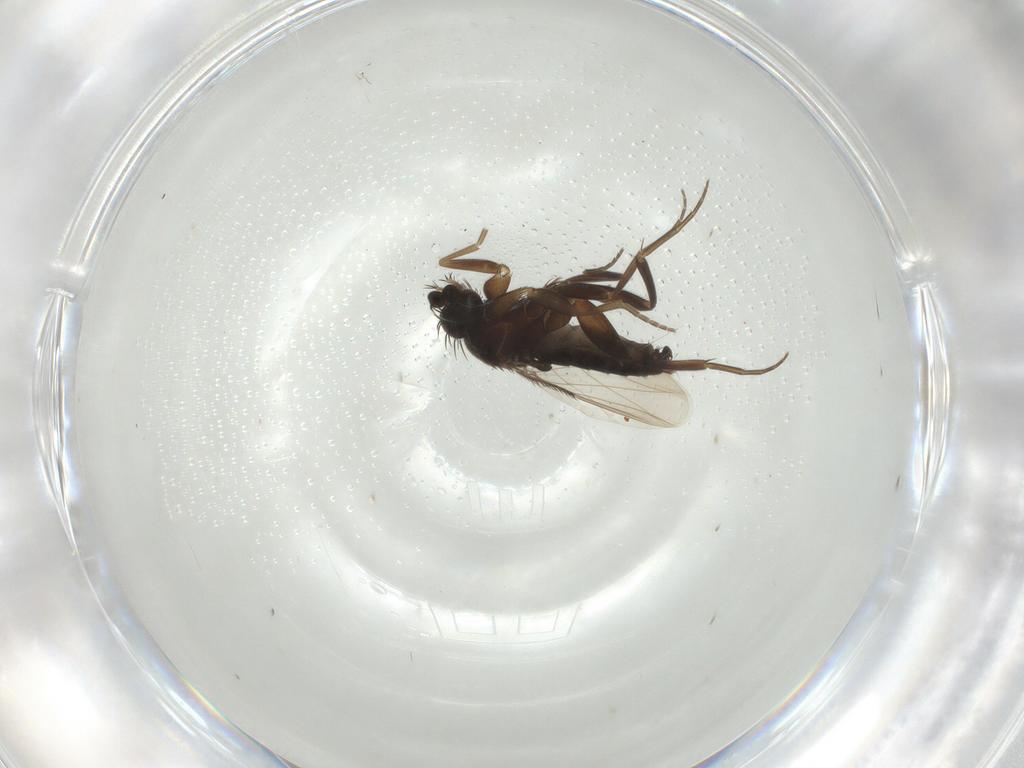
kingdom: Animalia
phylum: Arthropoda
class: Insecta
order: Diptera
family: Phoridae
